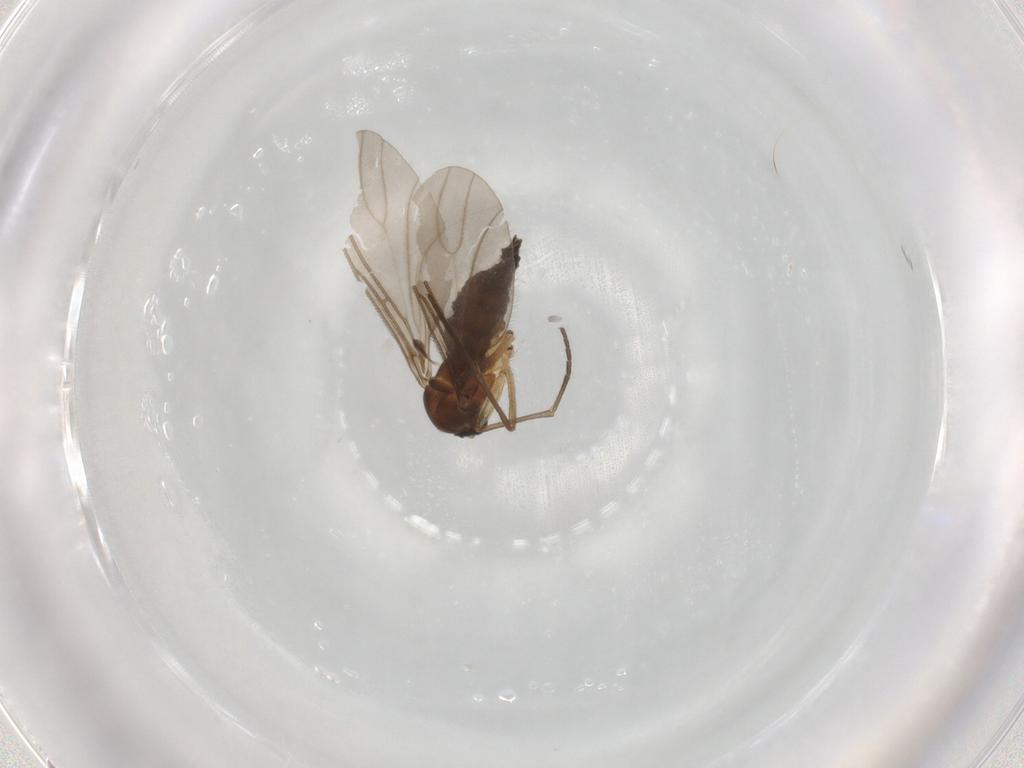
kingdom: Animalia
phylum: Arthropoda
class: Insecta
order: Diptera
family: Sciaridae
